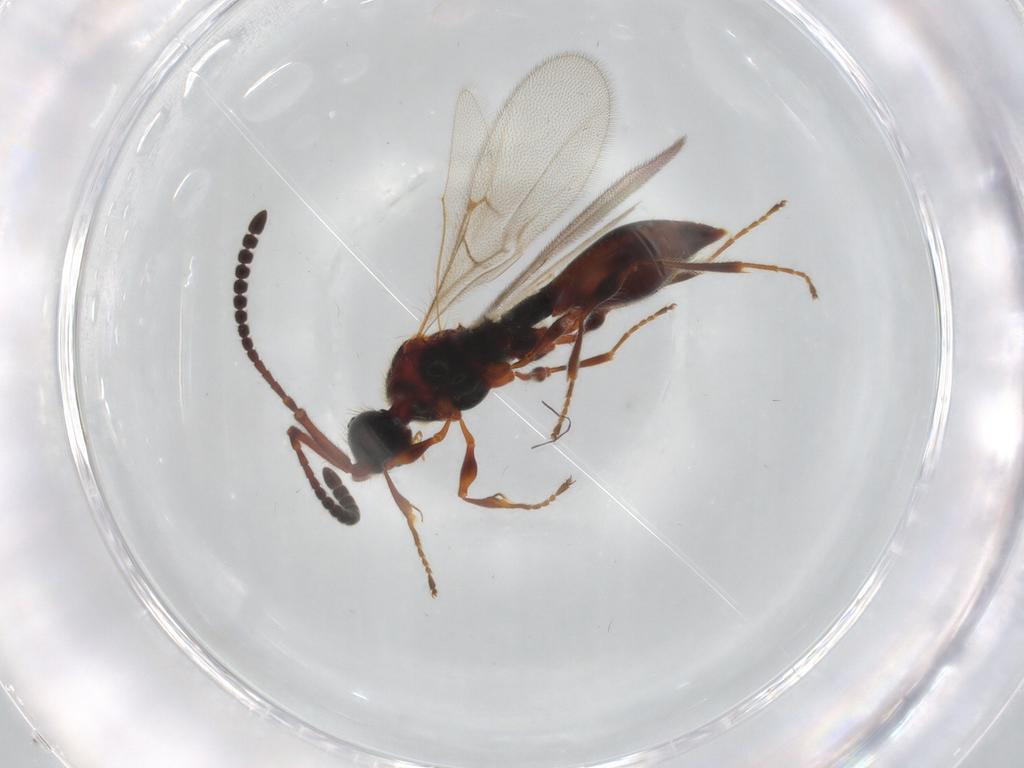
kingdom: Animalia
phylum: Arthropoda
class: Insecta
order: Hymenoptera
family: Diapriidae
